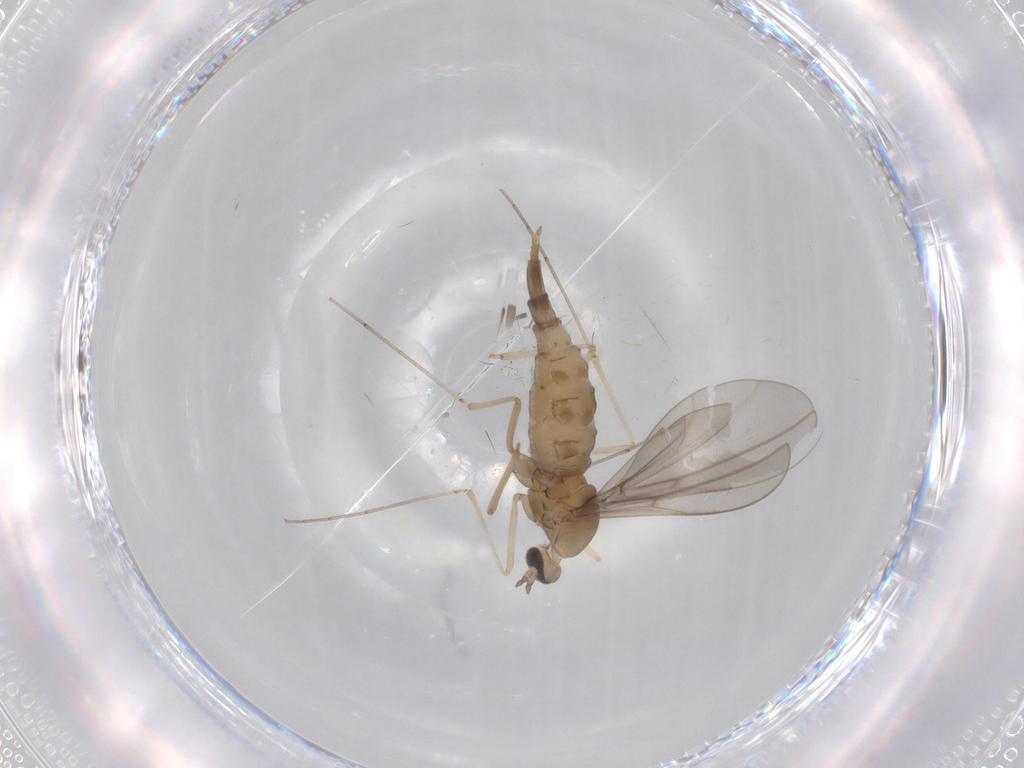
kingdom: Animalia
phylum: Arthropoda
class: Insecta
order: Diptera
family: Cecidomyiidae
